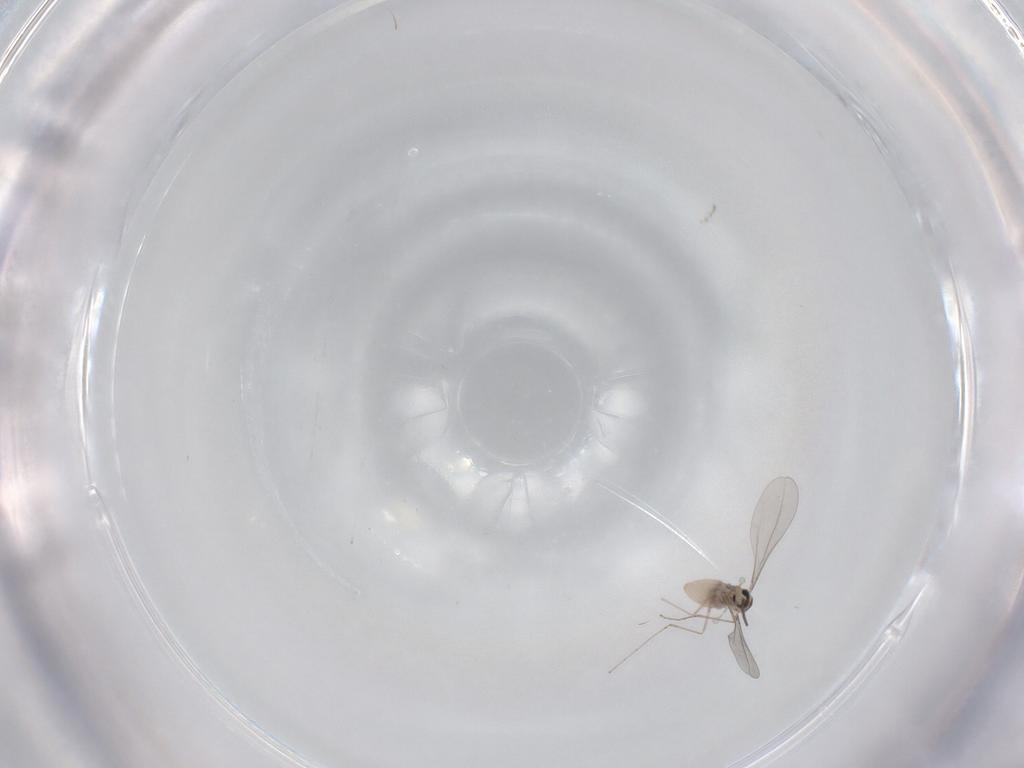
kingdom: Animalia
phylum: Arthropoda
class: Insecta
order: Diptera
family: Cecidomyiidae
